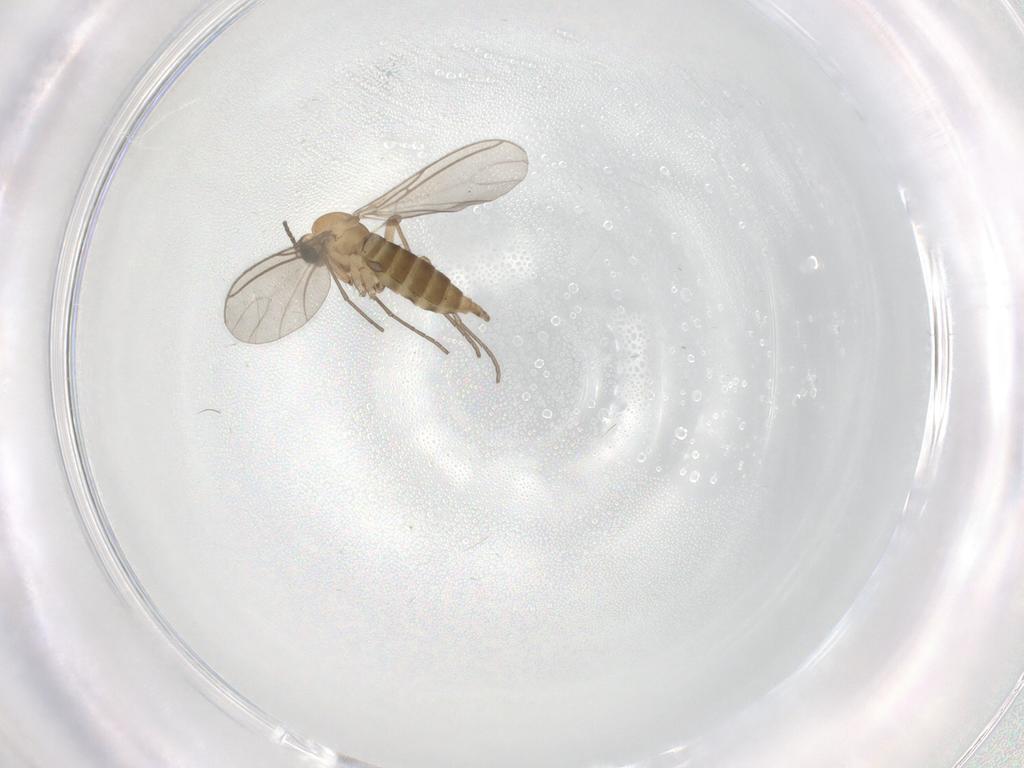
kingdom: Animalia
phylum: Arthropoda
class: Insecta
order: Diptera
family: Sciaridae
